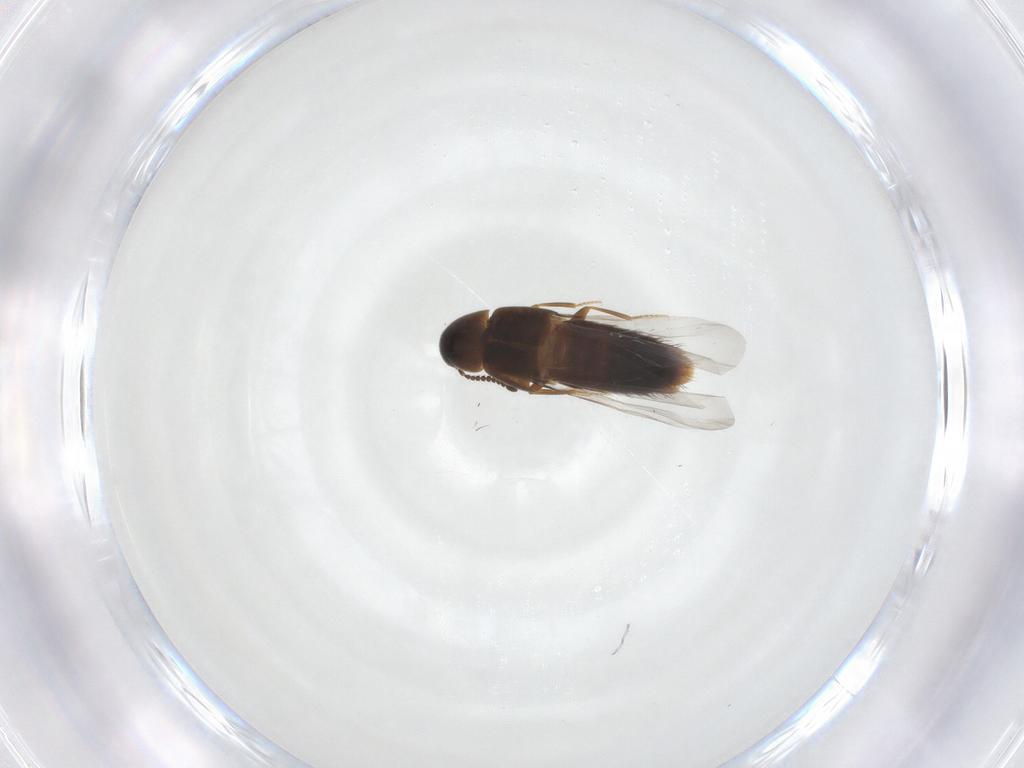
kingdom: Animalia
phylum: Arthropoda
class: Insecta
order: Coleoptera
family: Staphylinidae
